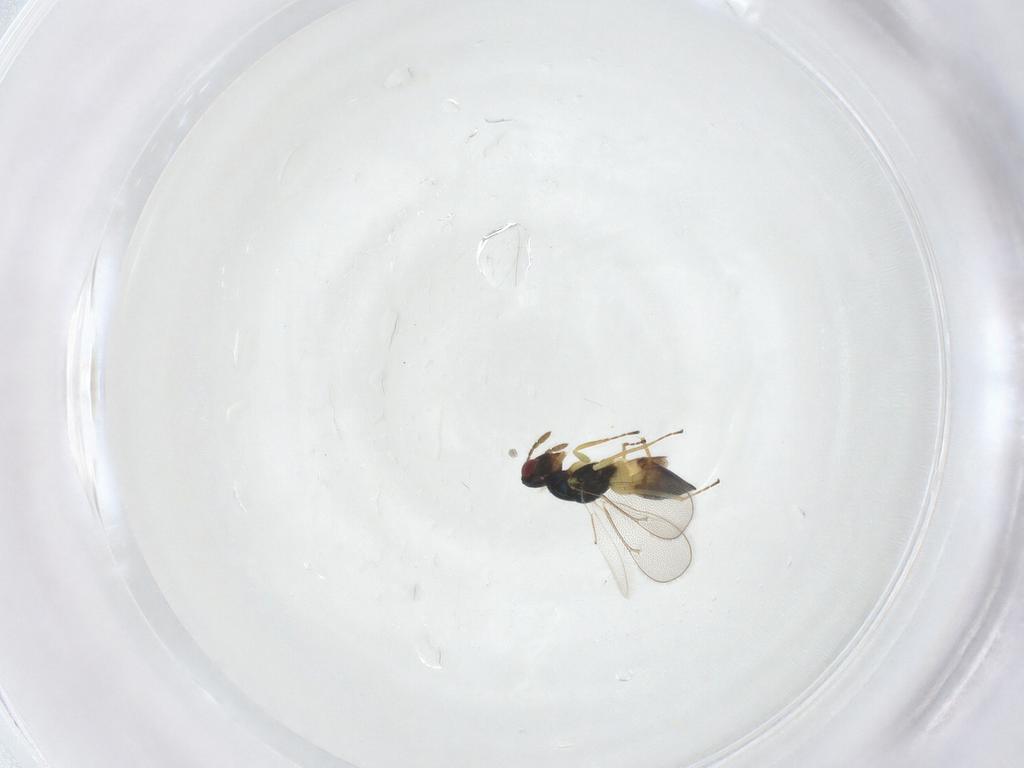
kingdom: Animalia
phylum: Arthropoda
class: Insecta
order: Hymenoptera
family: Eulophidae
